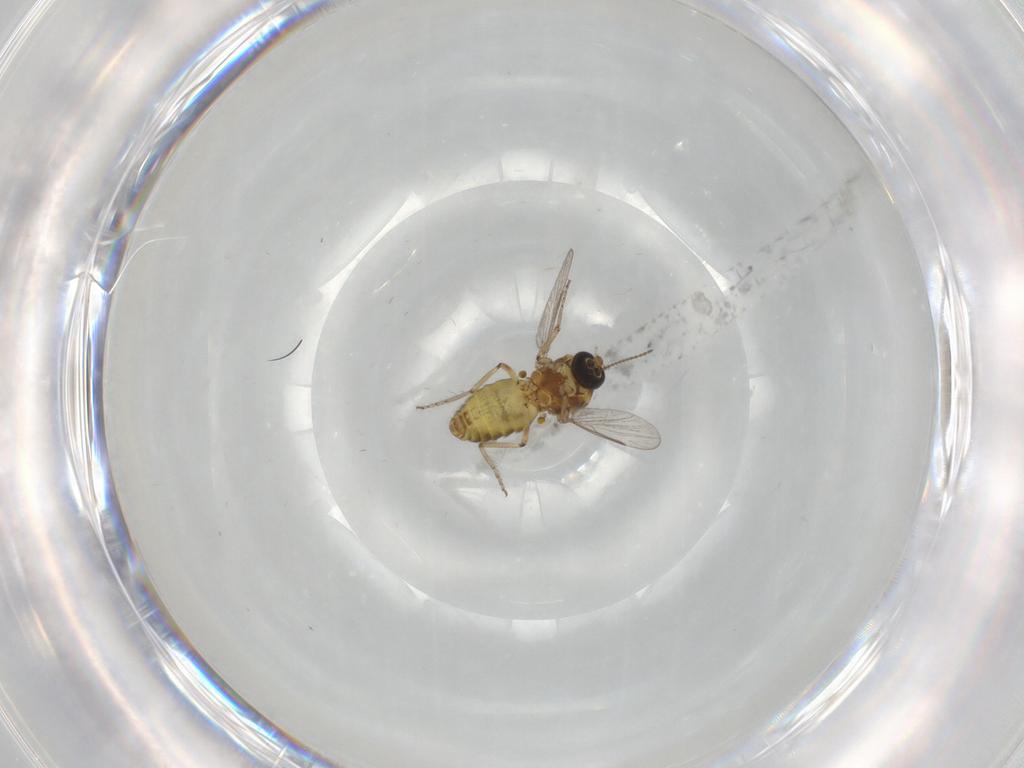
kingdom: Animalia
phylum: Arthropoda
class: Insecta
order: Diptera
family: Ceratopogonidae
